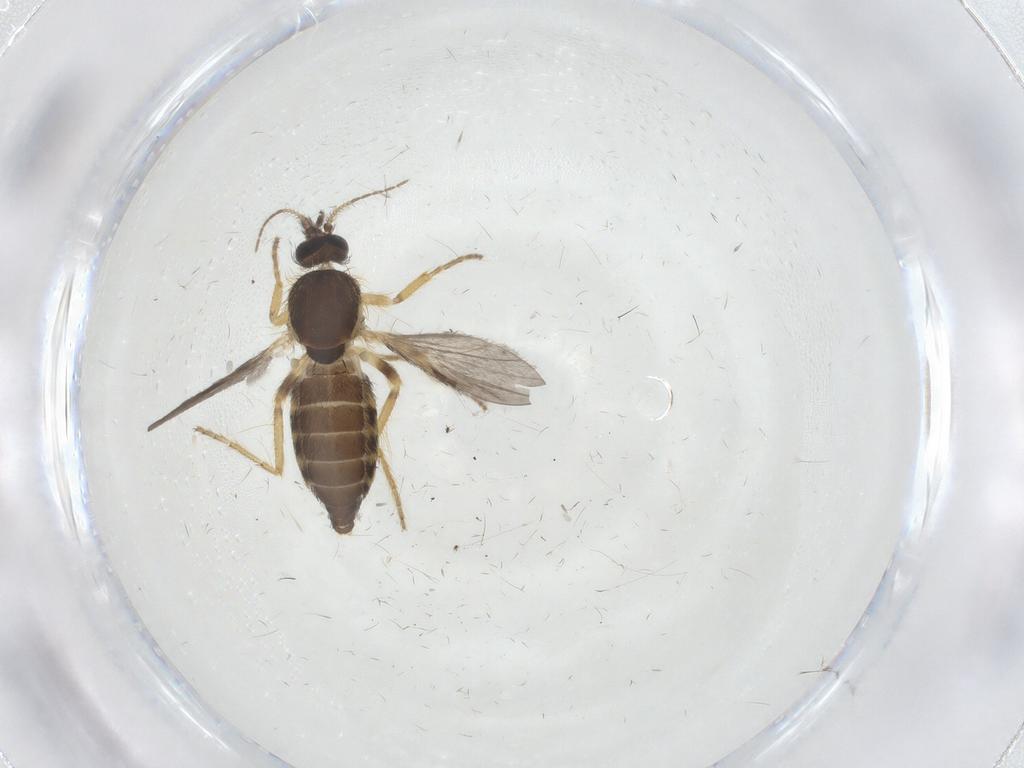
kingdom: Animalia
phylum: Arthropoda
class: Insecta
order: Diptera
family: Ceratopogonidae
